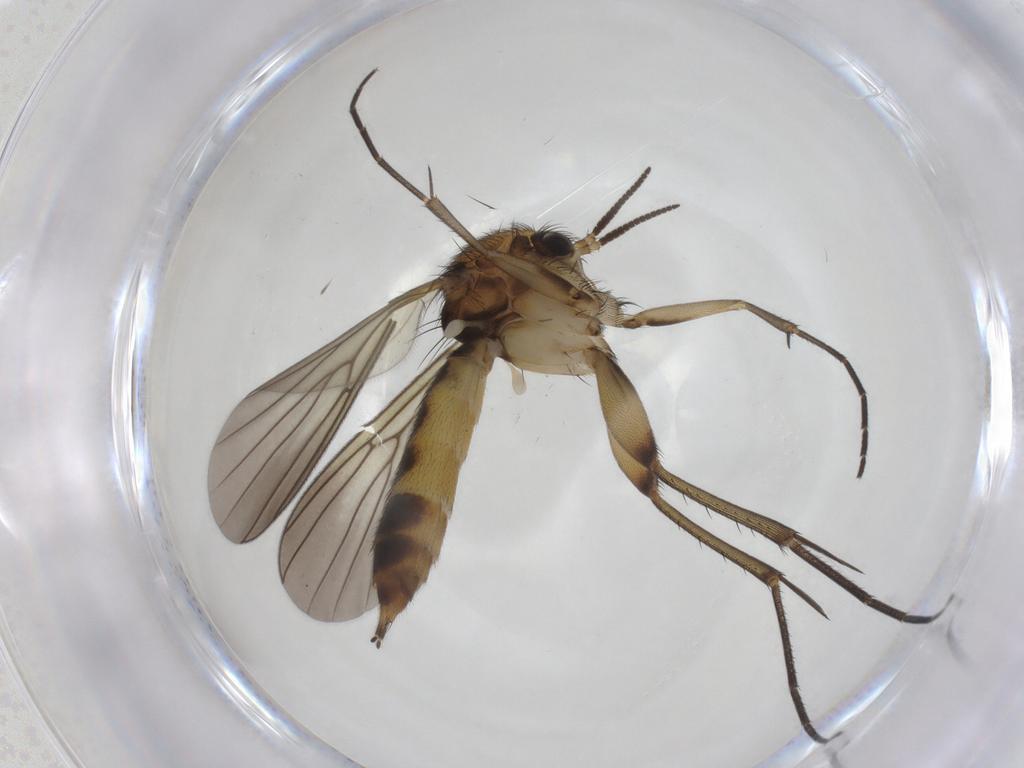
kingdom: Animalia
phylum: Arthropoda
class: Insecta
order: Diptera
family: Mycetophilidae
